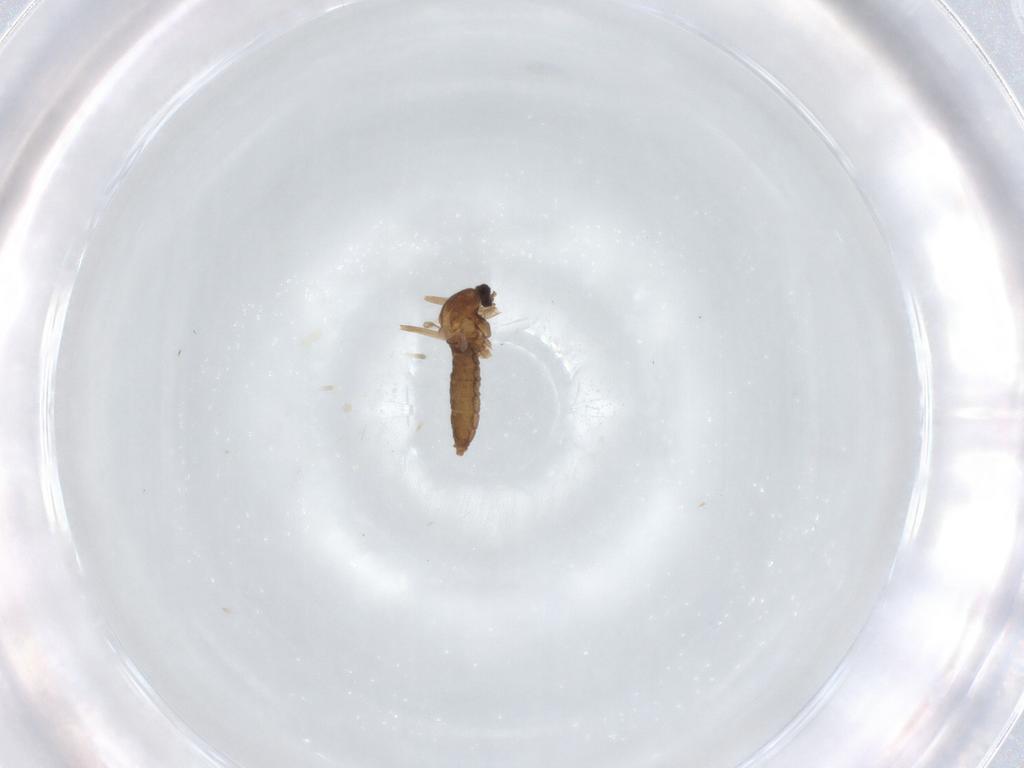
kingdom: Animalia
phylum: Arthropoda
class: Insecta
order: Diptera
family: Cecidomyiidae
